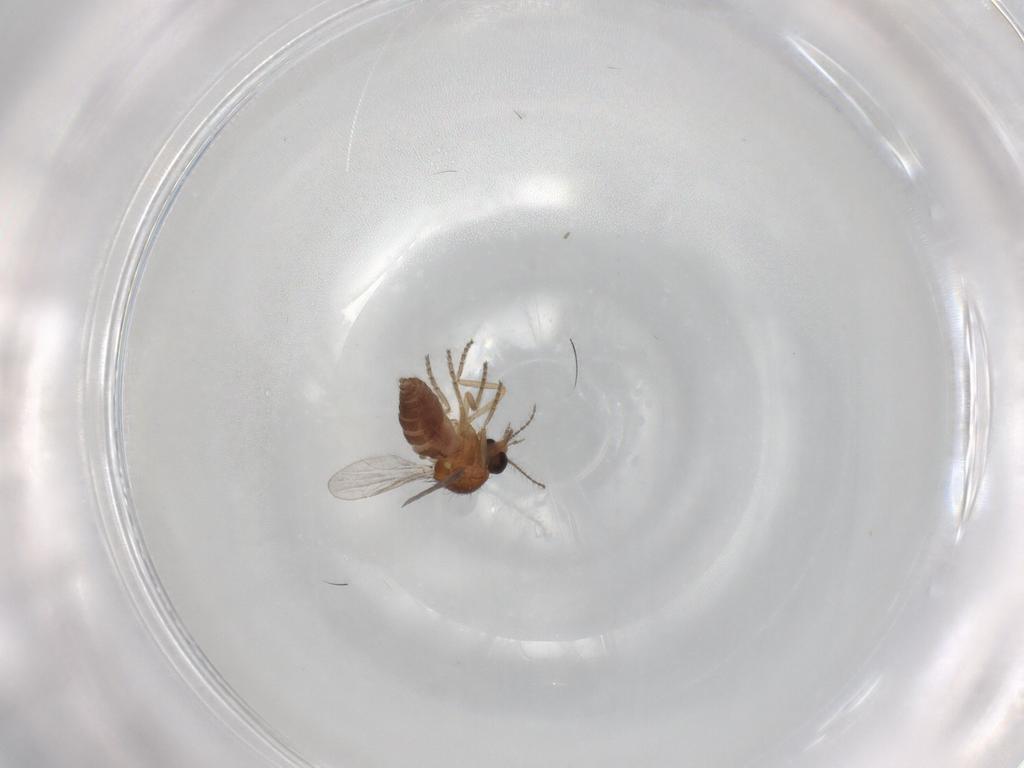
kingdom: Animalia
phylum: Arthropoda
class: Insecta
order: Diptera
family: Ceratopogonidae
